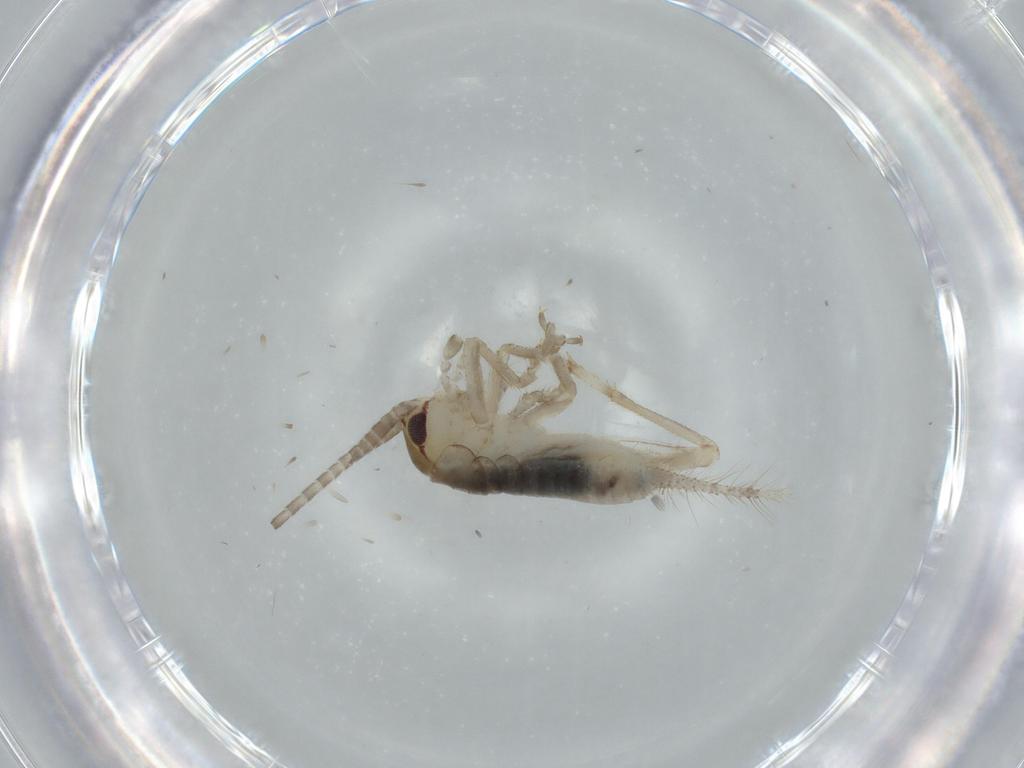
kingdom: Animalia
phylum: Arthropoda
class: Insecta
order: Orthoptera
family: Gryllidae
